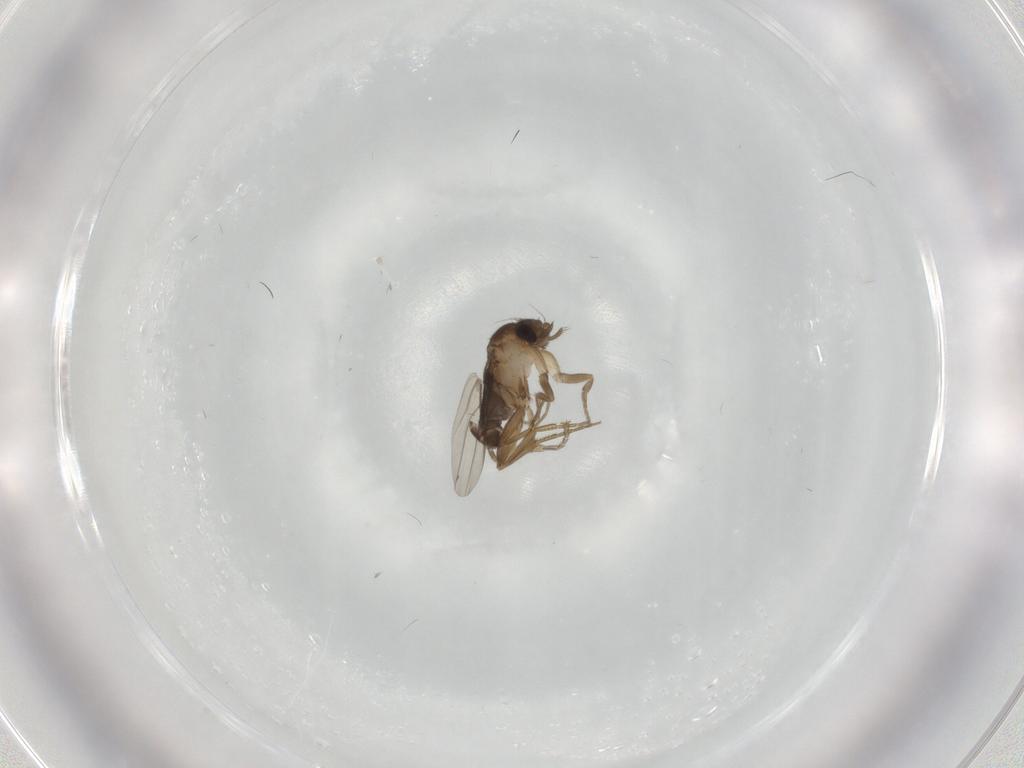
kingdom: Animalia
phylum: Arthropoda
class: Insecta
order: Diptera
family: Phoridae
